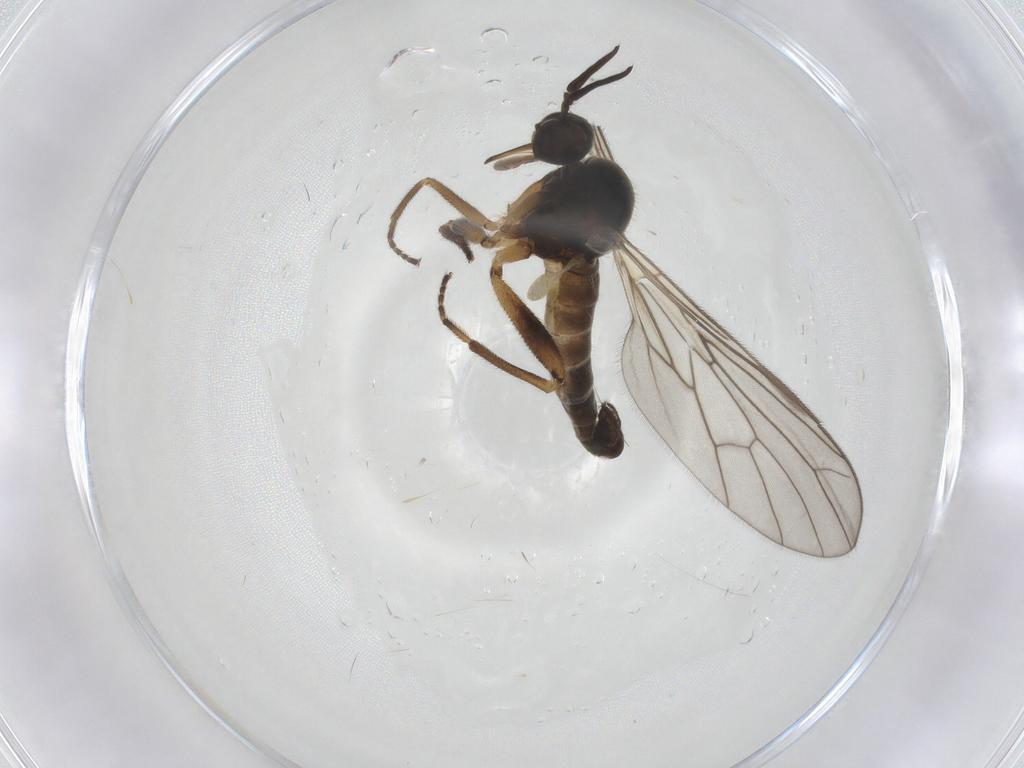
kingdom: Animalia
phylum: Arthropoda
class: Insecta
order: Diptera
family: Empididae
